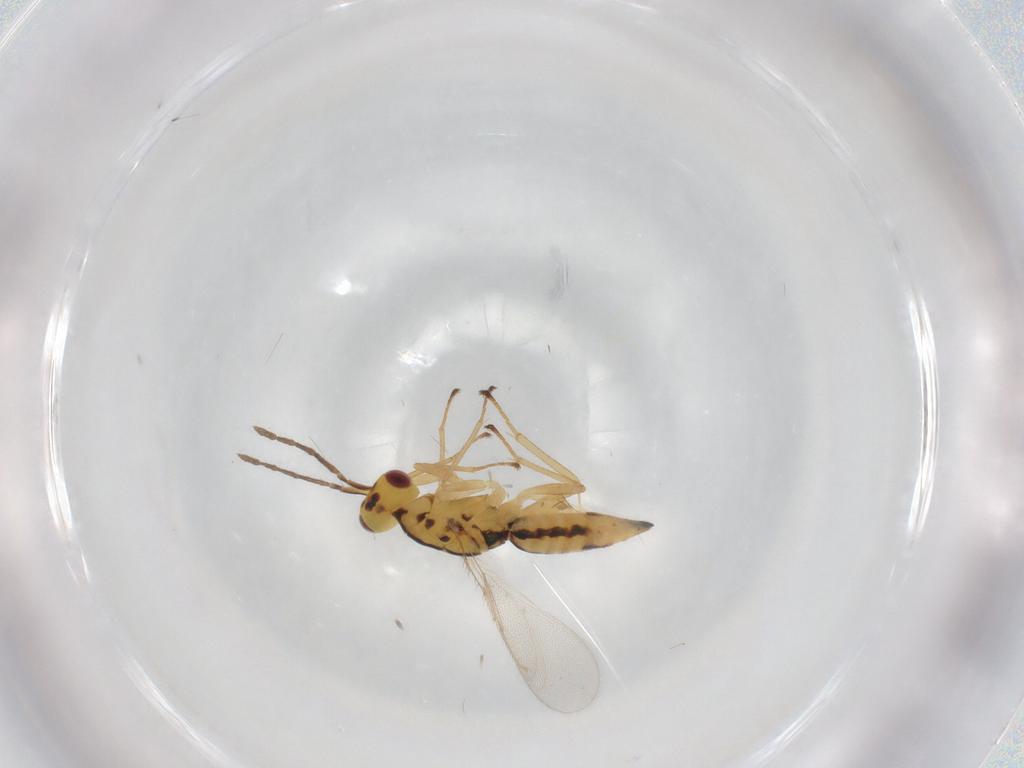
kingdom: Animalia
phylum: Arthropoda
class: Insecta
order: Hymenoptera
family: Eulophidae
